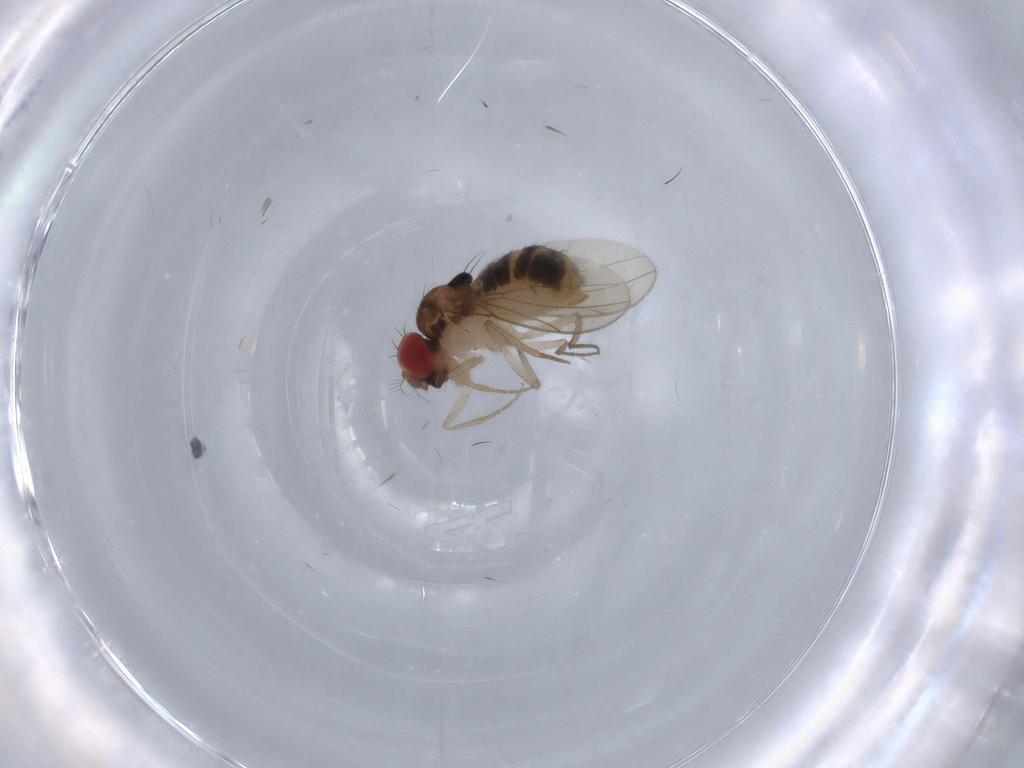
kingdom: Animalia
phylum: Arthropoda
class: Insecta
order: Diptera
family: Drosophilidae
